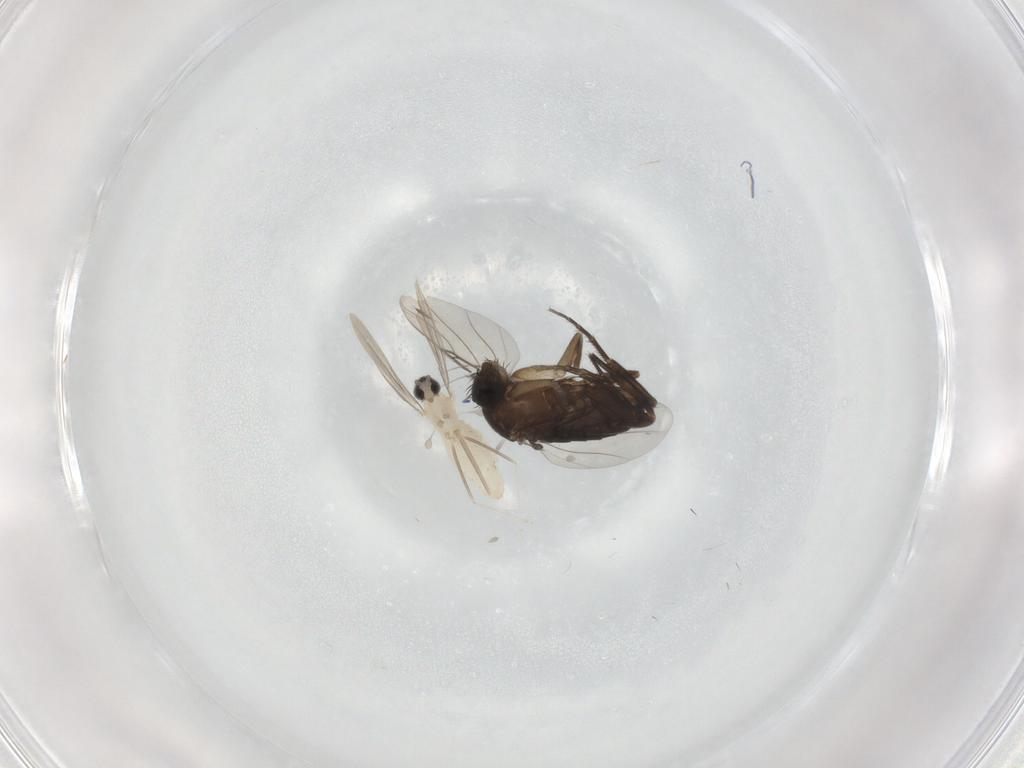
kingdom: Animalia
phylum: Arthropoda
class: Insecta
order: Diptera
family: Cecidomyiidae
